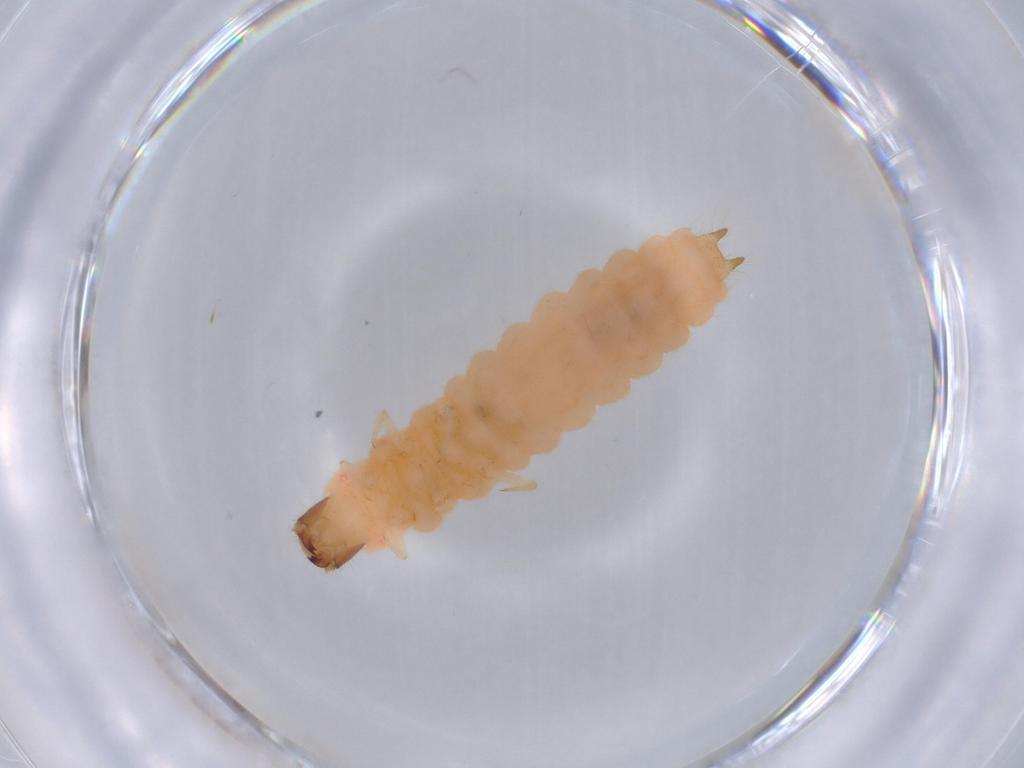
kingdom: Animalia
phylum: Arthropoda
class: Insecta
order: Coleoptera
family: Melyridae
